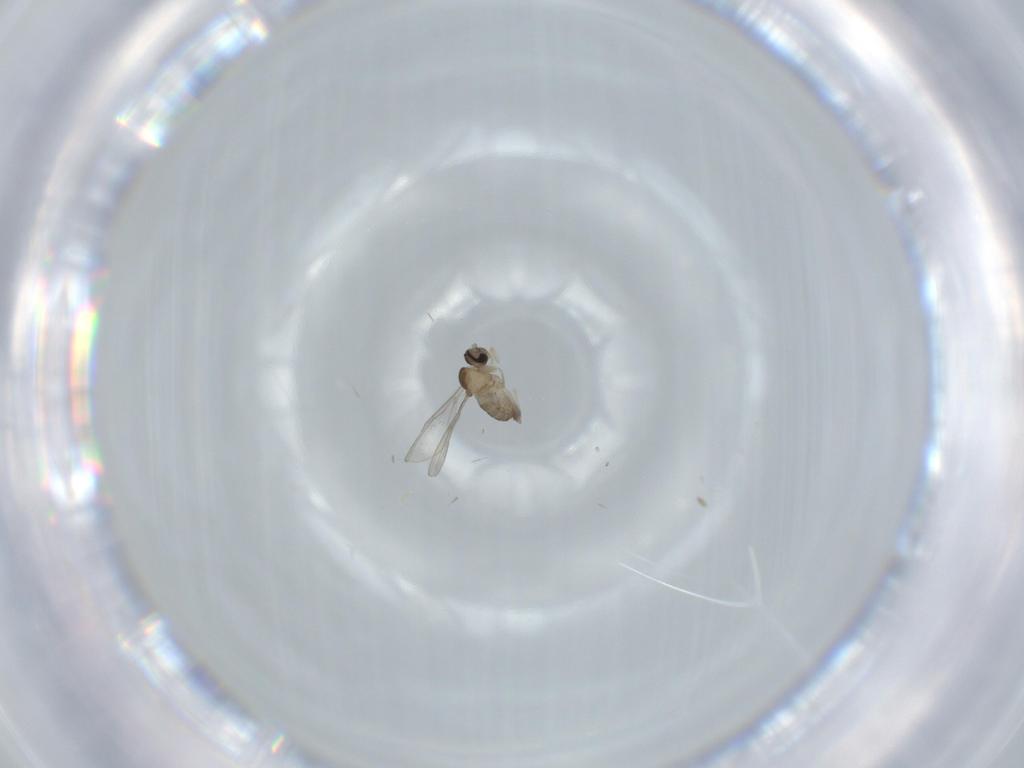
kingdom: Animalia
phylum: Arthropoda
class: Insecta
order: Diptera
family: Cecidomyiidae
